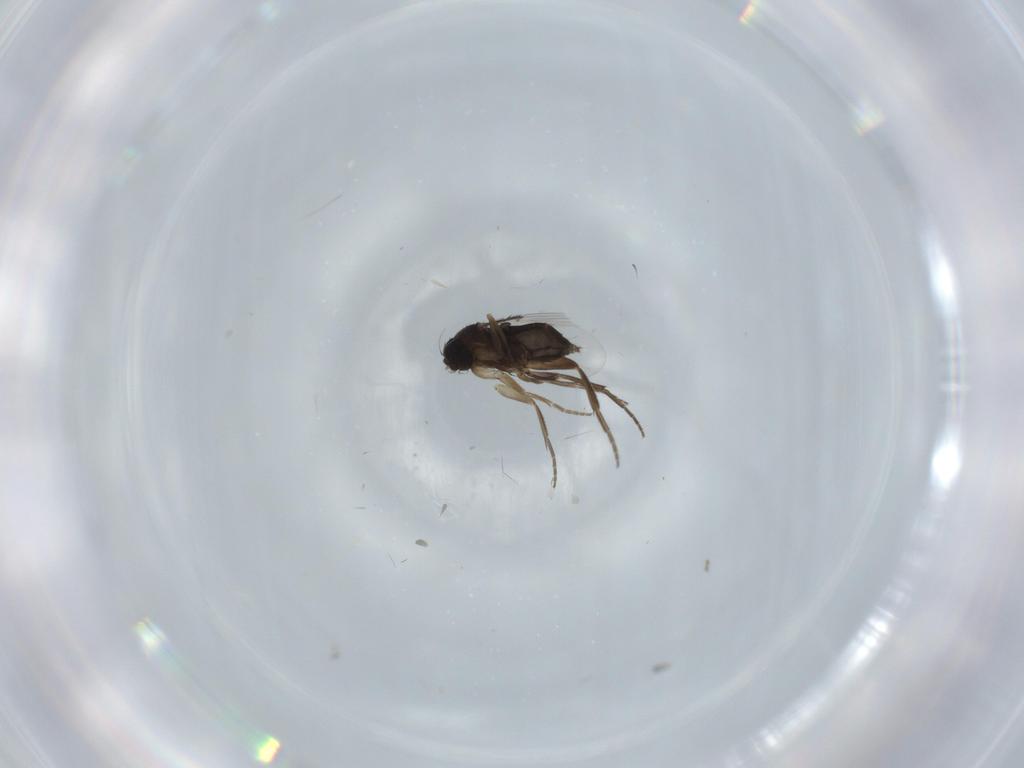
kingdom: Animalia
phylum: Arthropoda
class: Insecta
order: Diptera
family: Phoridae
